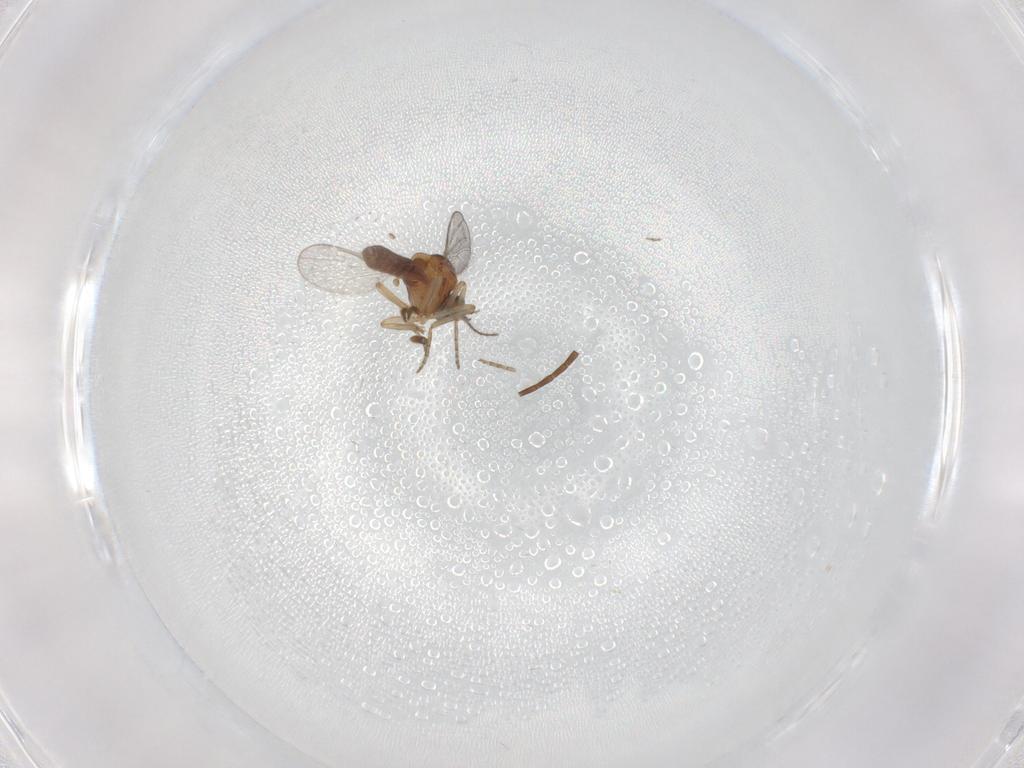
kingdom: Animalia
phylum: Arthropoda
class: Insecta
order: Diptera
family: Ceratopogonidae
